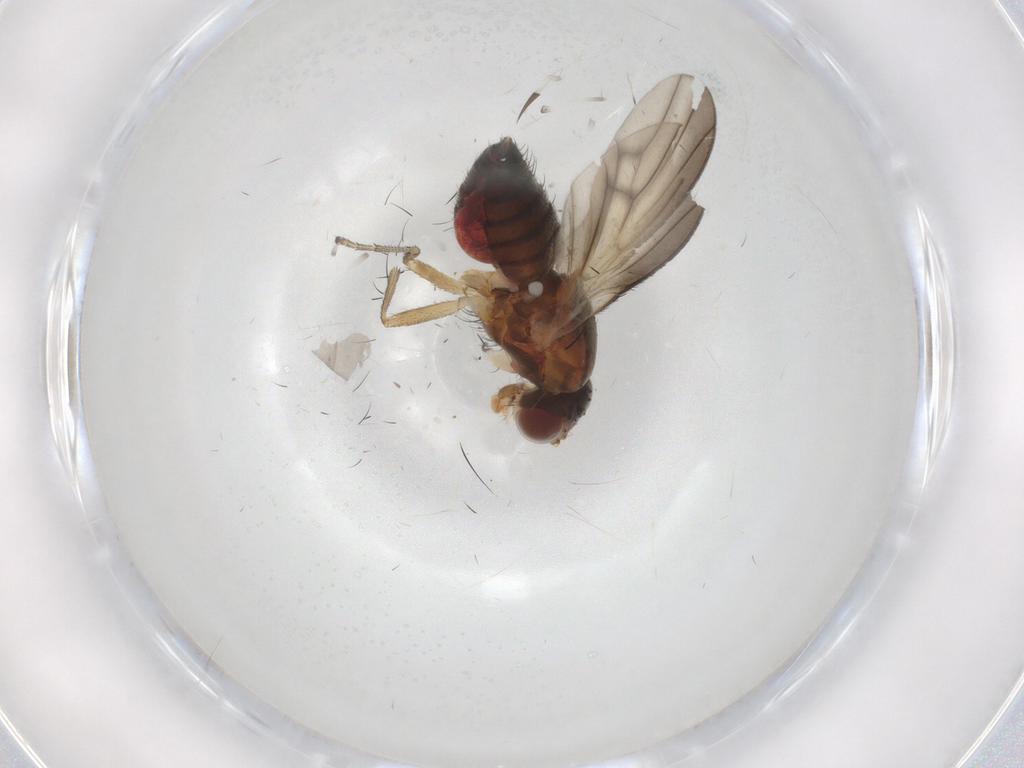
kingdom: Animalia
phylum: Arthropoda
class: Insecta
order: Diptera
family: Heleomyzidae
